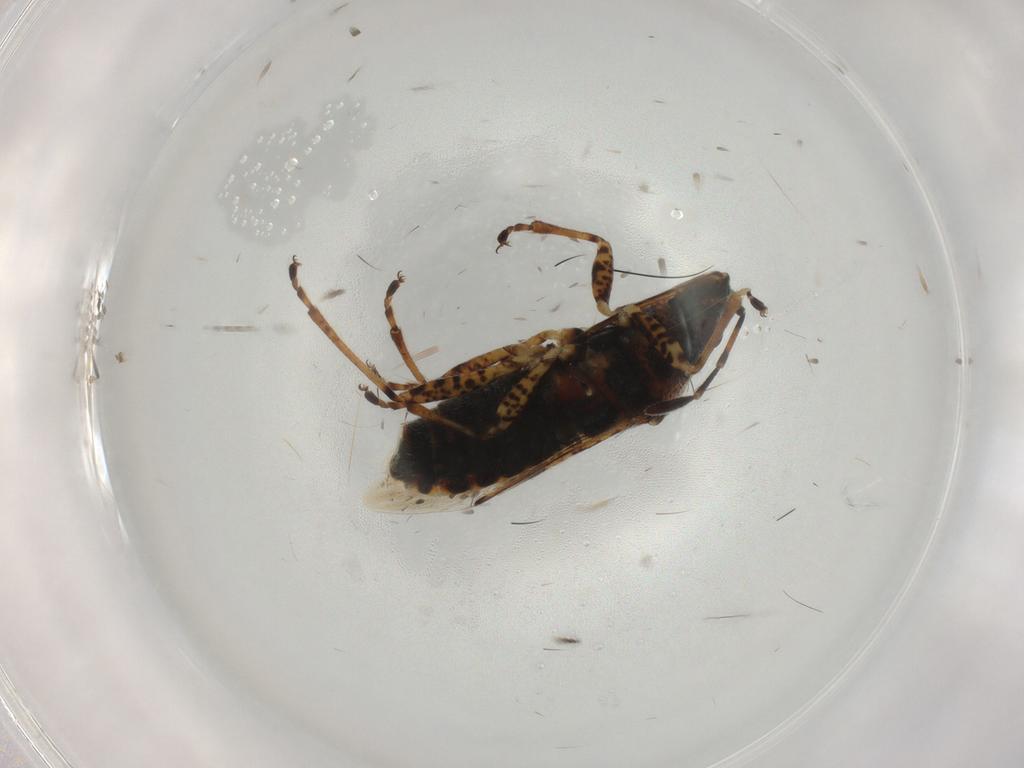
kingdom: Animalia
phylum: Arthropoda
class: Insecta
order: Hemiptera
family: Lygaeidae
